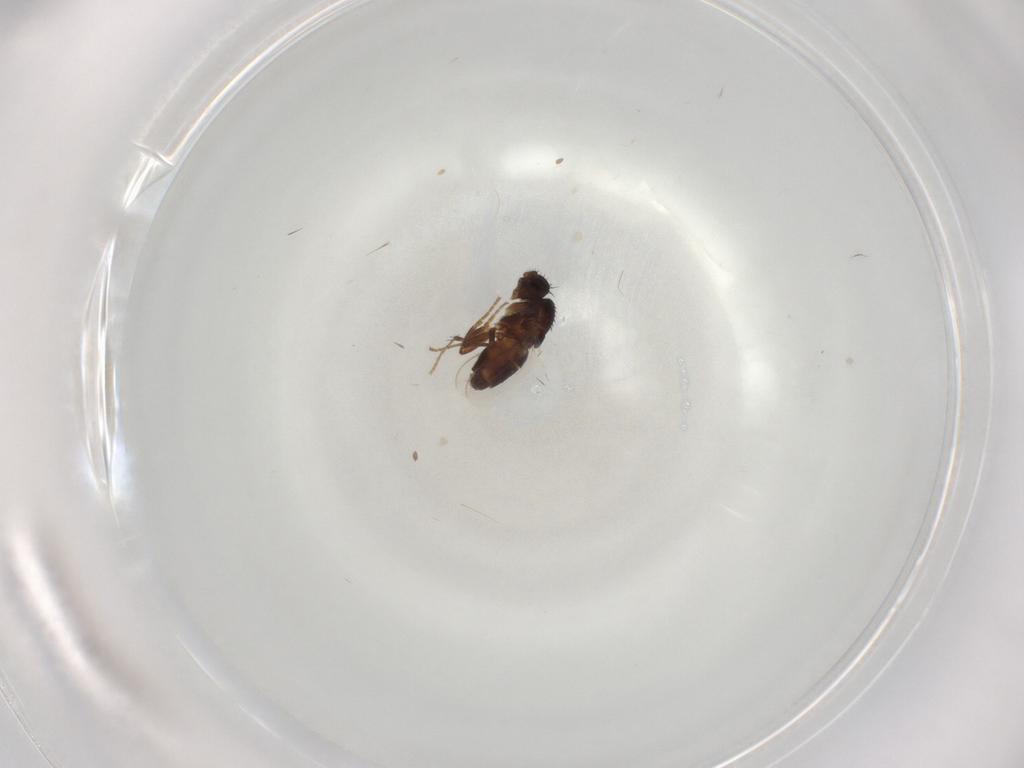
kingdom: Animalia
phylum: Arthropoda
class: Insecta
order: Diptera
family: Sphaeroceridae
